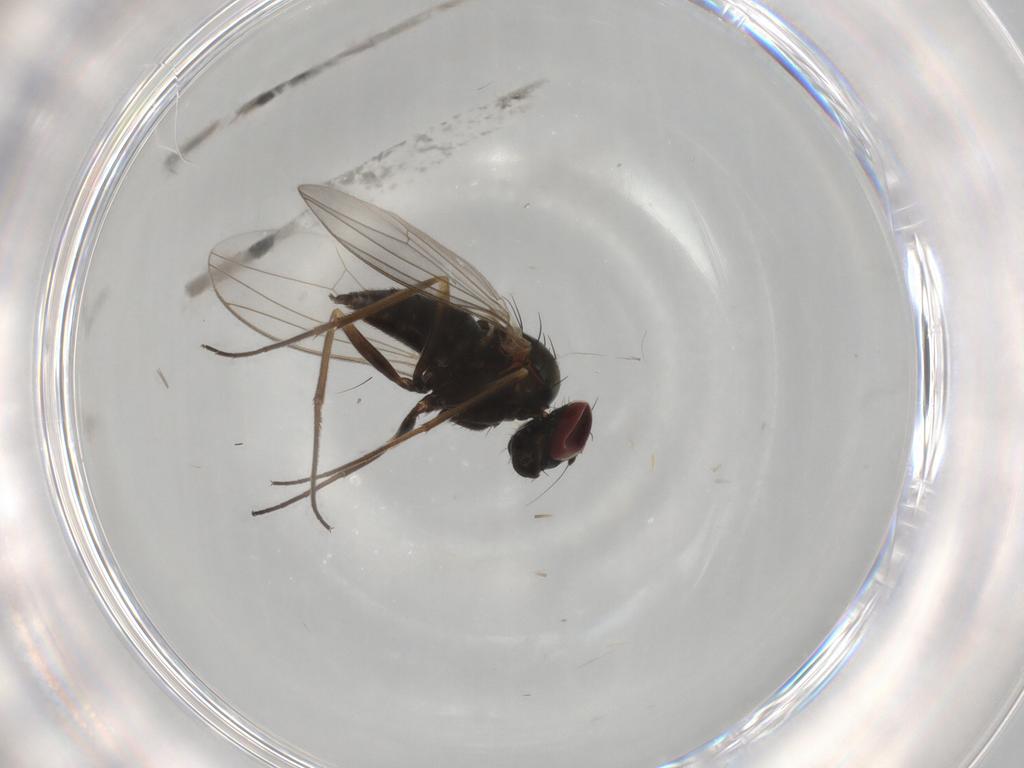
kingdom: Animalia
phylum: Arthropoda
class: Insecta
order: Diptera
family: Dolichopodidae
